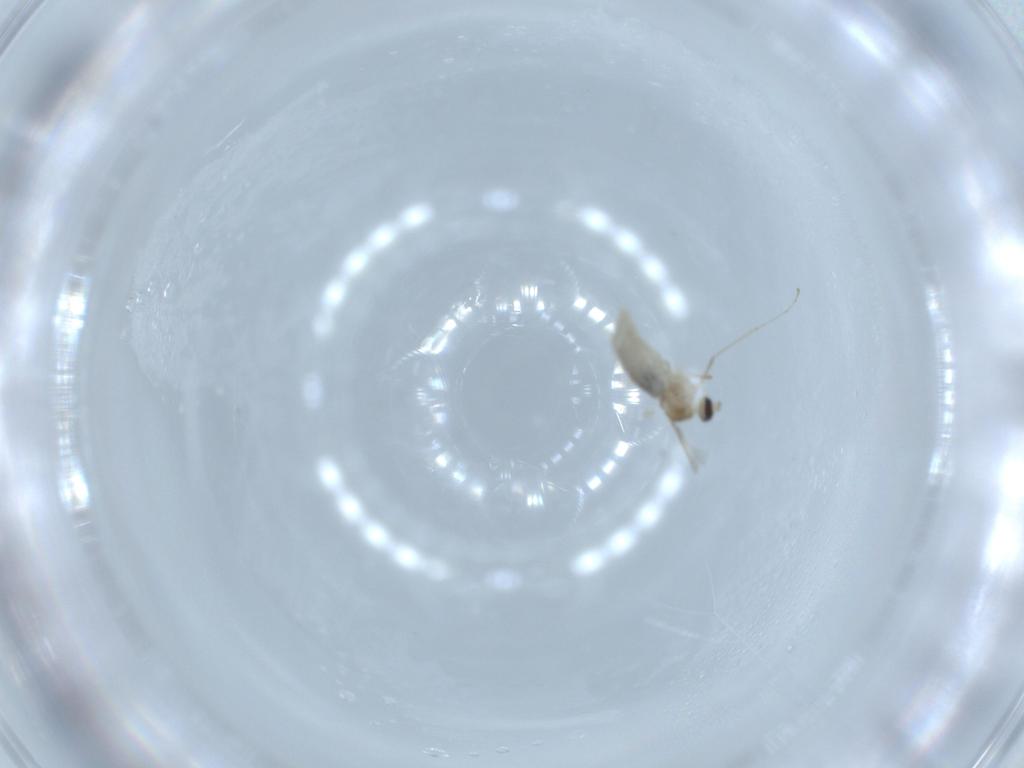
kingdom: Animalia
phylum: Arthropoda
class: Insecta
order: Diptera
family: Cecidomyiidae
